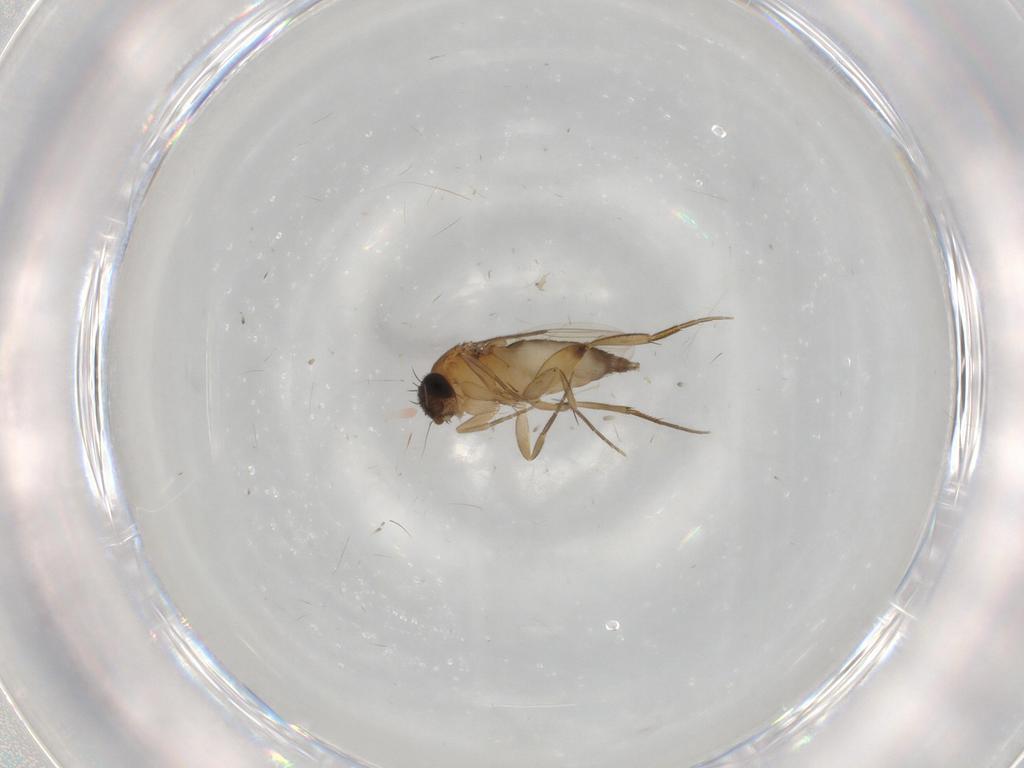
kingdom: Animalia
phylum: Arthropoda
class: Insecta
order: Diptera
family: Phoridae
